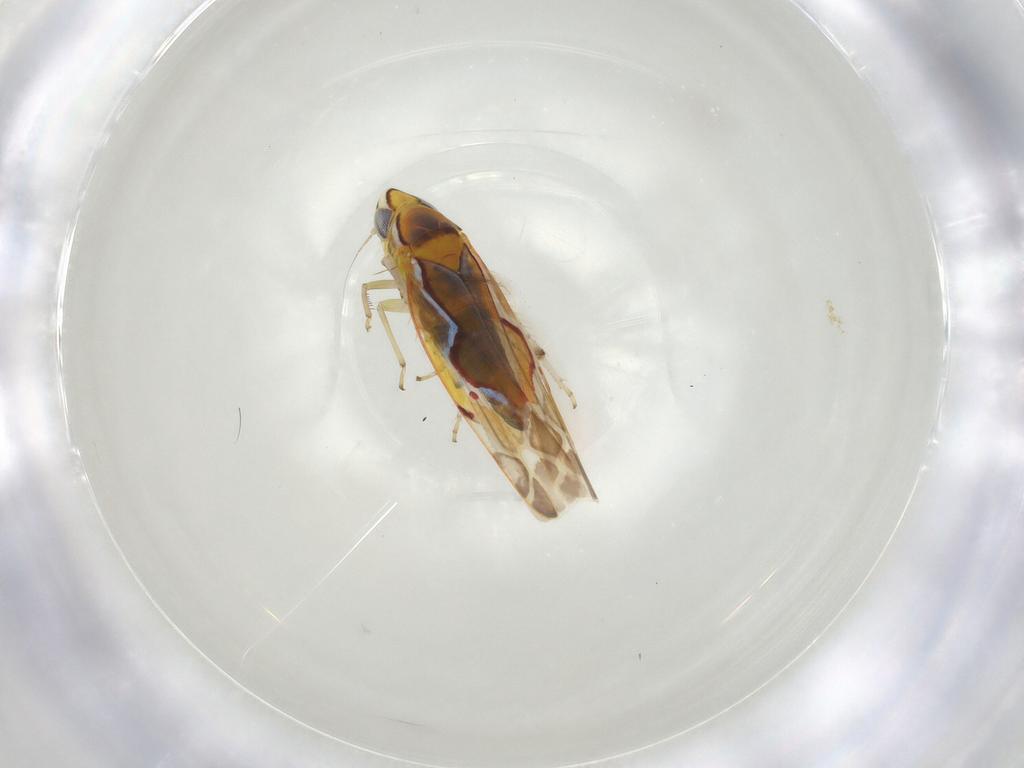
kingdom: Animalia
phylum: Arthropoda
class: Insecta
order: Hemiptera
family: Cicadellidae
